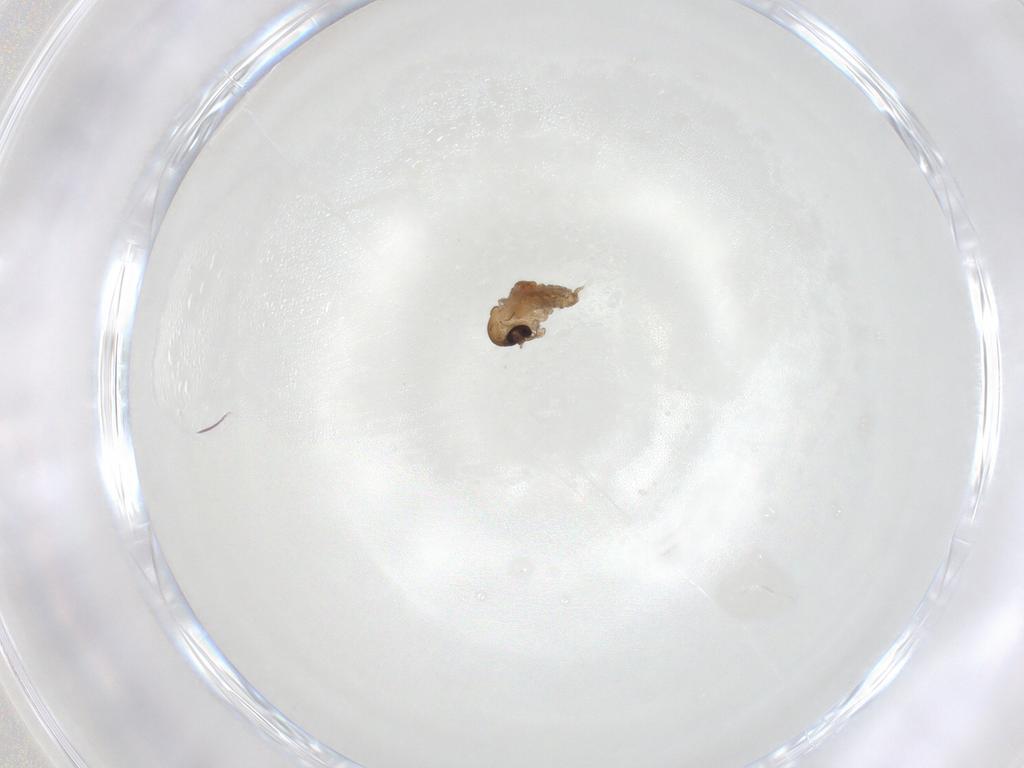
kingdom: Animalia
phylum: Arthropoda
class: Insecta
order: Diptera
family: Psychodidae
